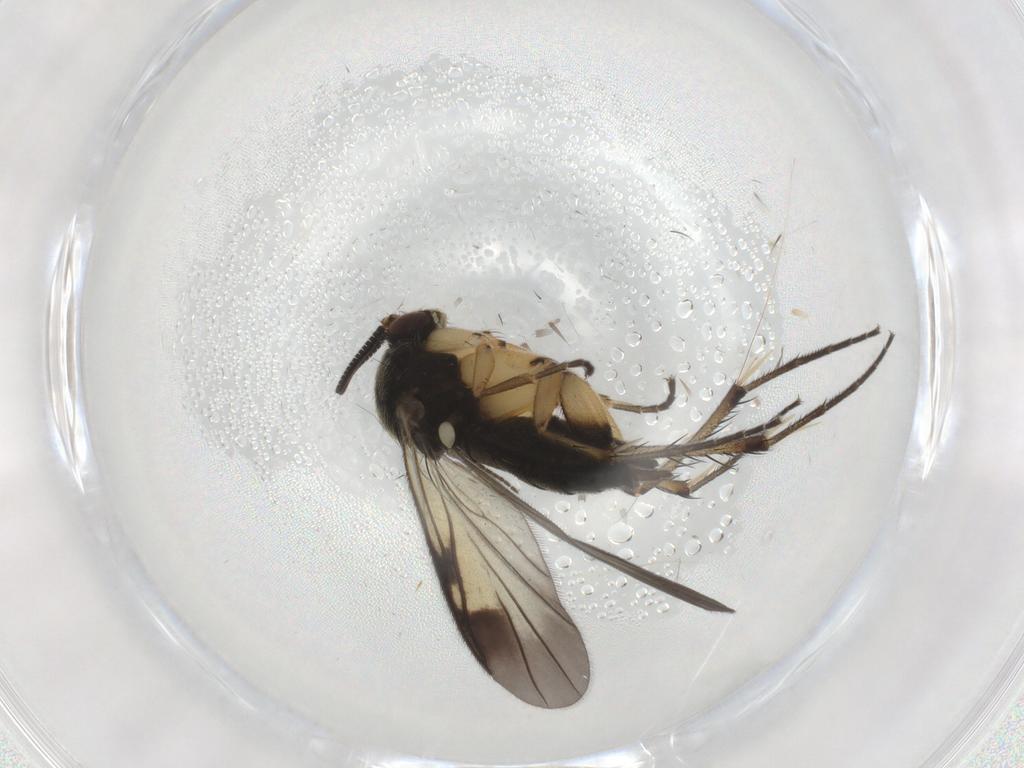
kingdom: Animalia
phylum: Arthropoda
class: Insecta
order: Diptera
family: Mycetophilidae
